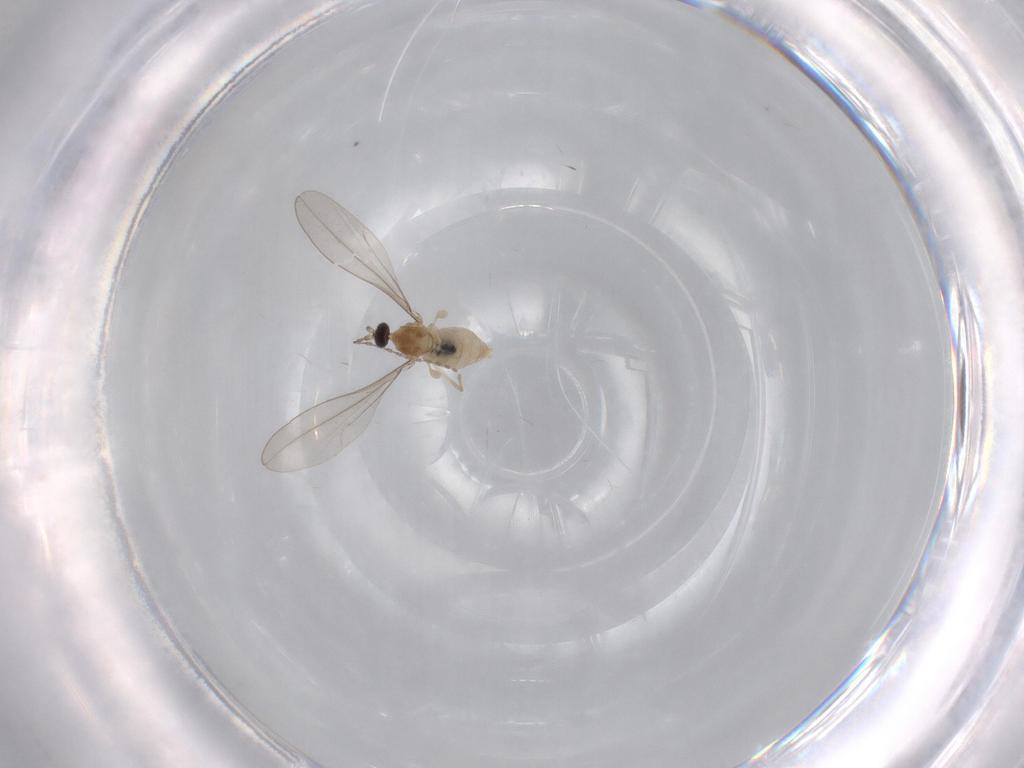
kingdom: Animalia
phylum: Arthropoda
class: Insecta
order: Diptera
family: Cecidomyiidae
